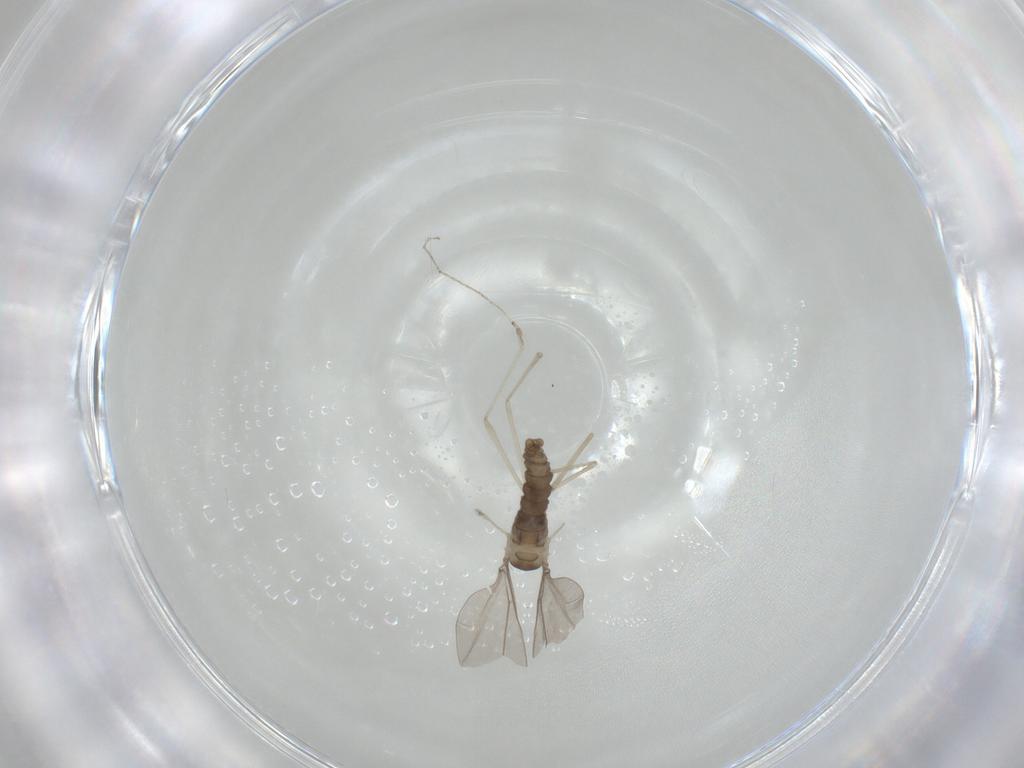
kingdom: Animalia
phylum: Arthropoda
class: Insecta
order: Diptera
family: Cecidomyiidae
